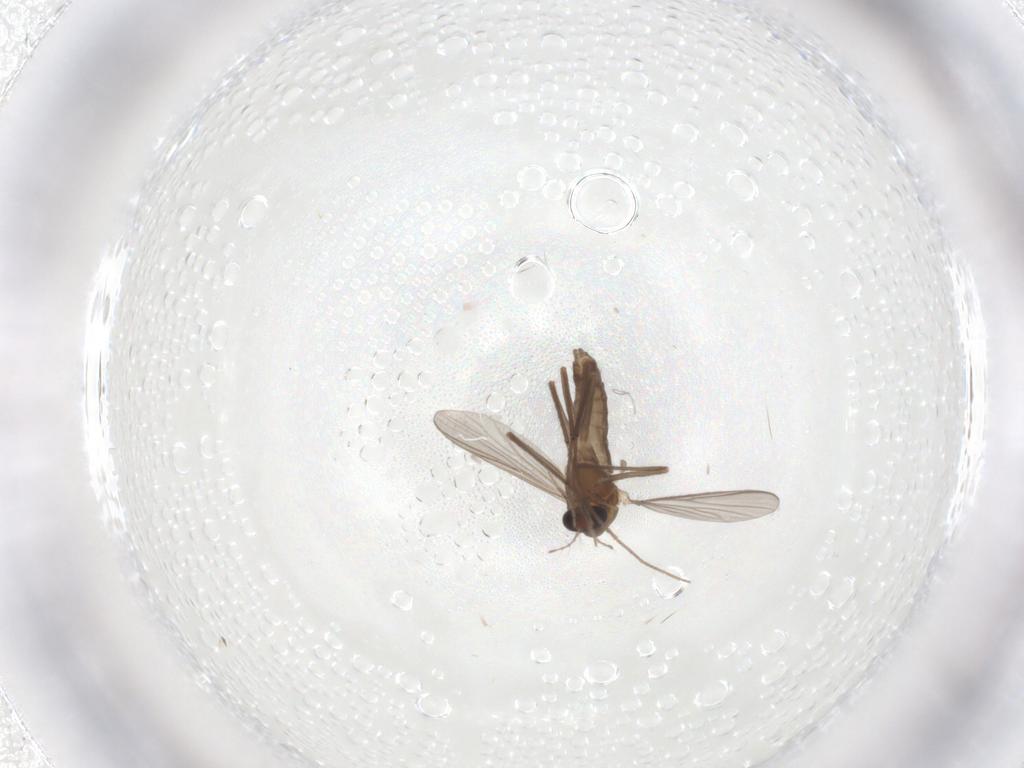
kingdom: Animalia
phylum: Arthropoda
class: Insecta
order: Diptera
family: Chironomidae
